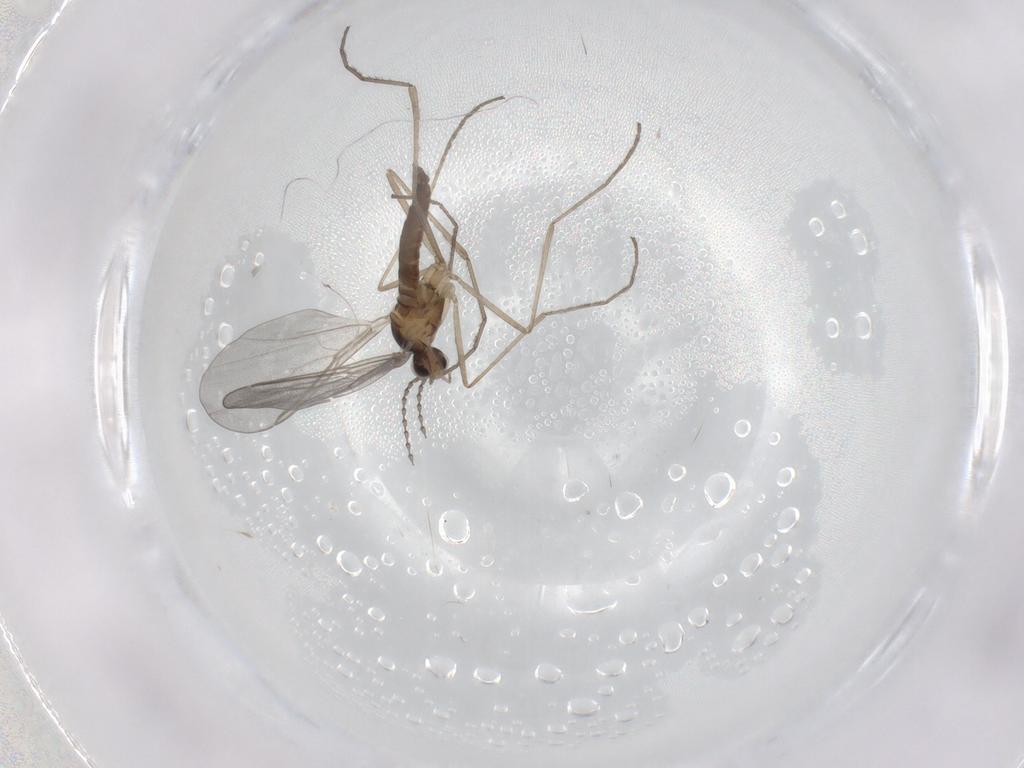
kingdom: Animalia
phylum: Arthropoda
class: Insecta
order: Diptera
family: Cecidomyiidae
